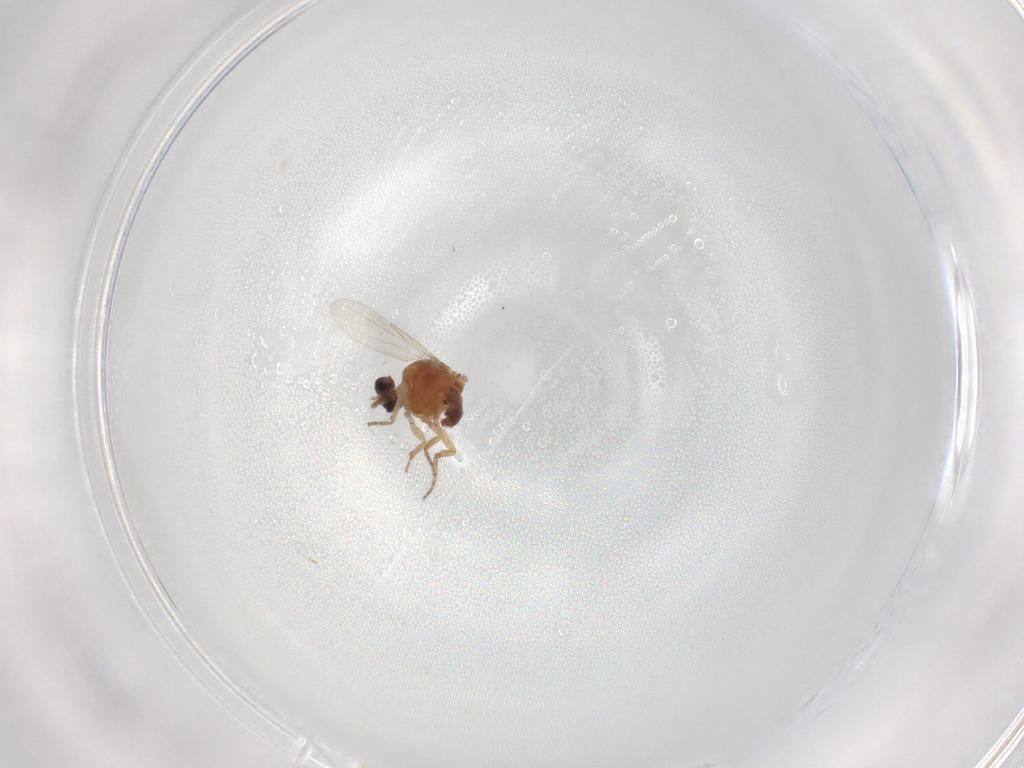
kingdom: Animalia
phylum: Arthropoda
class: Insecta
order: Diptera
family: Ceratopogonidae
